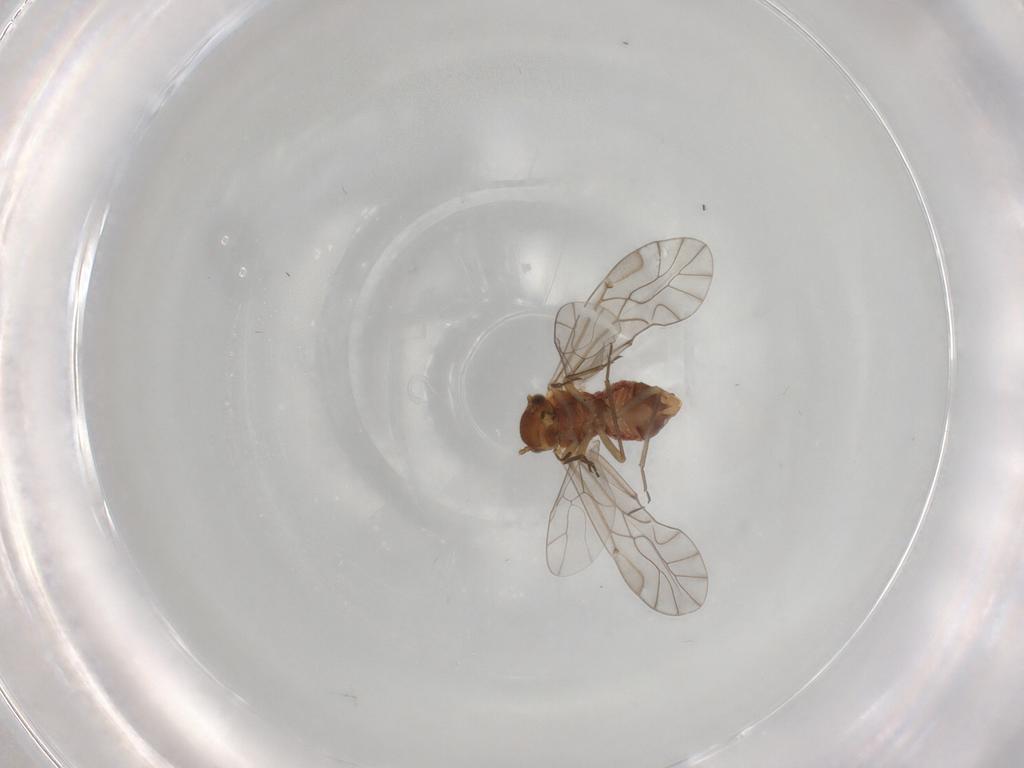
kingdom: Animalia
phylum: Arthropoda
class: Insecta
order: Psocodea
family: Lachesillidae
